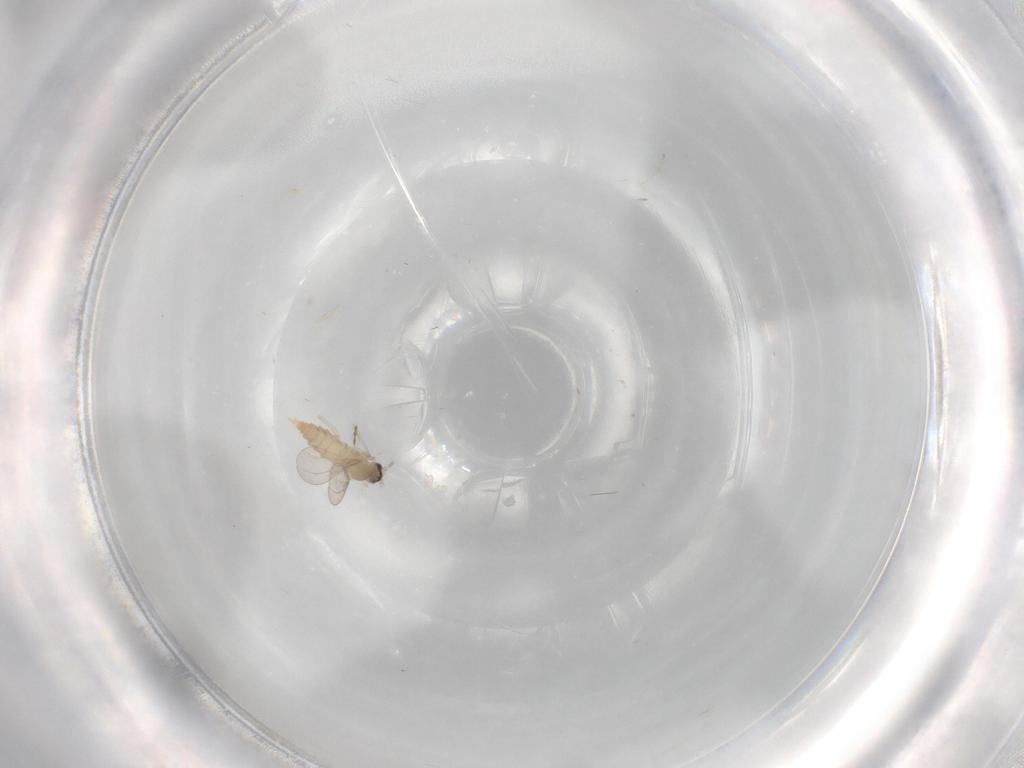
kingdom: Animalia
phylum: Arthropoda
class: Insecta
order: Diptera
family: Cecidomyiidae
